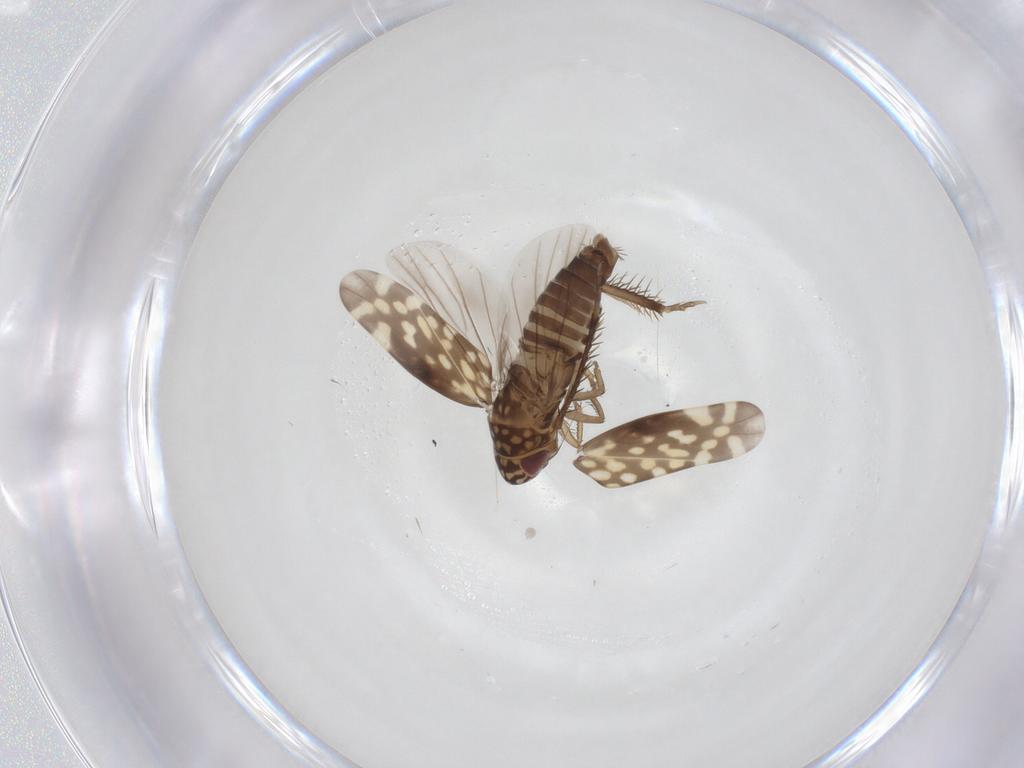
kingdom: Animalia
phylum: Arthropoda
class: Insecta
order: Hemiptera
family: Cicadellidae
